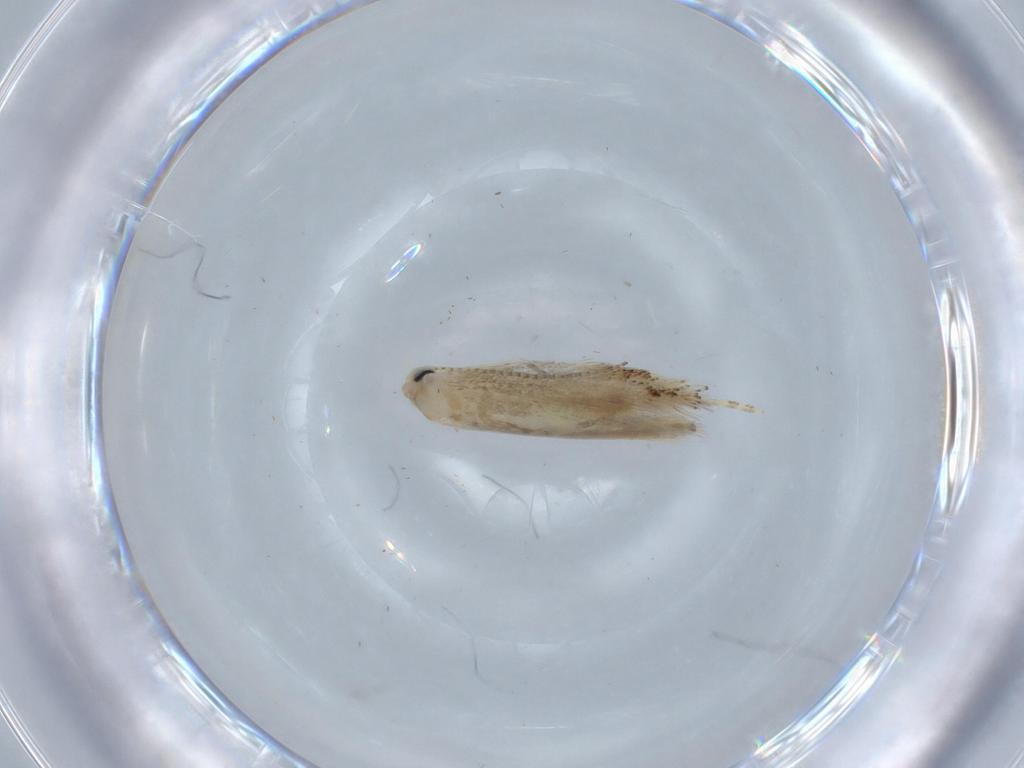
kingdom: Animalia
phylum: Arthropoda
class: Insecta
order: Lepidoptera
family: Bucculatricidae
